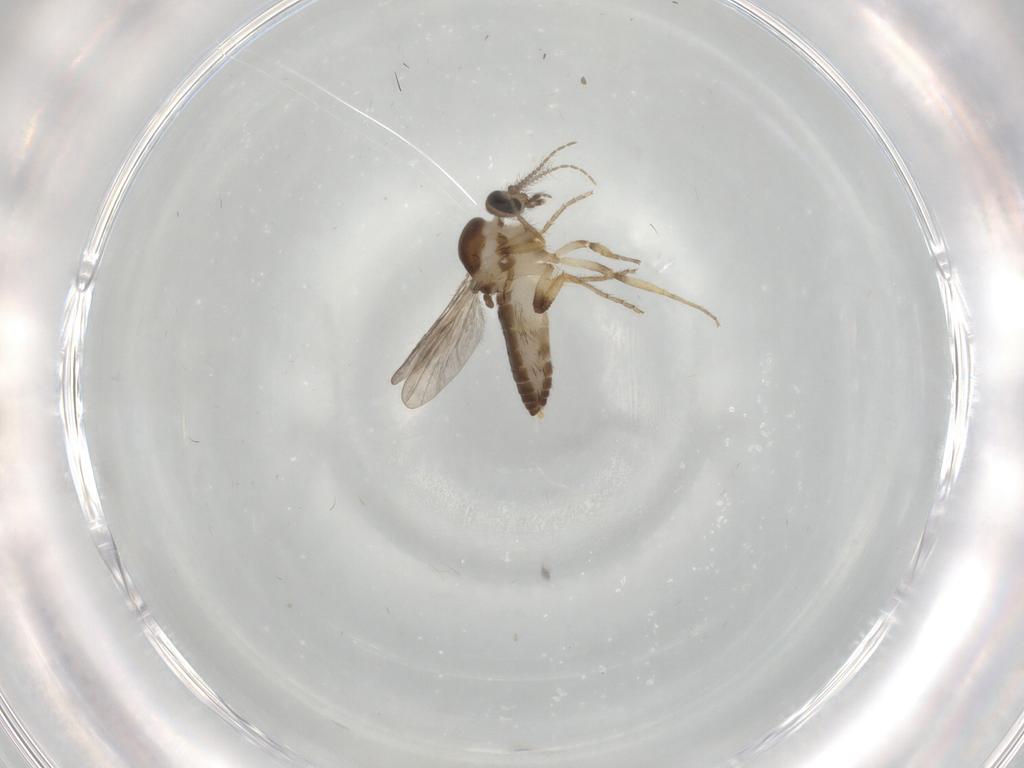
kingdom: Animalia
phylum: Arthropoda
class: Insecta
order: Diptera
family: Ceratopogonidae
